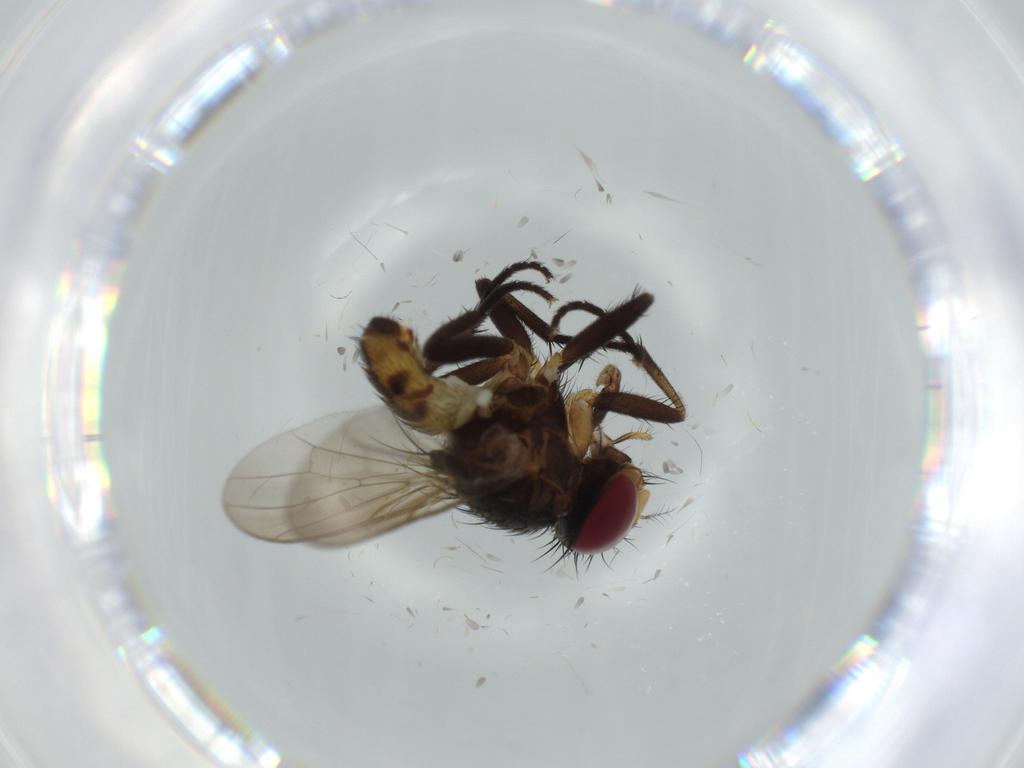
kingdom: Animalia
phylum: Arthropoda
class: Insecta
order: Diptera
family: Anthomyiidae
